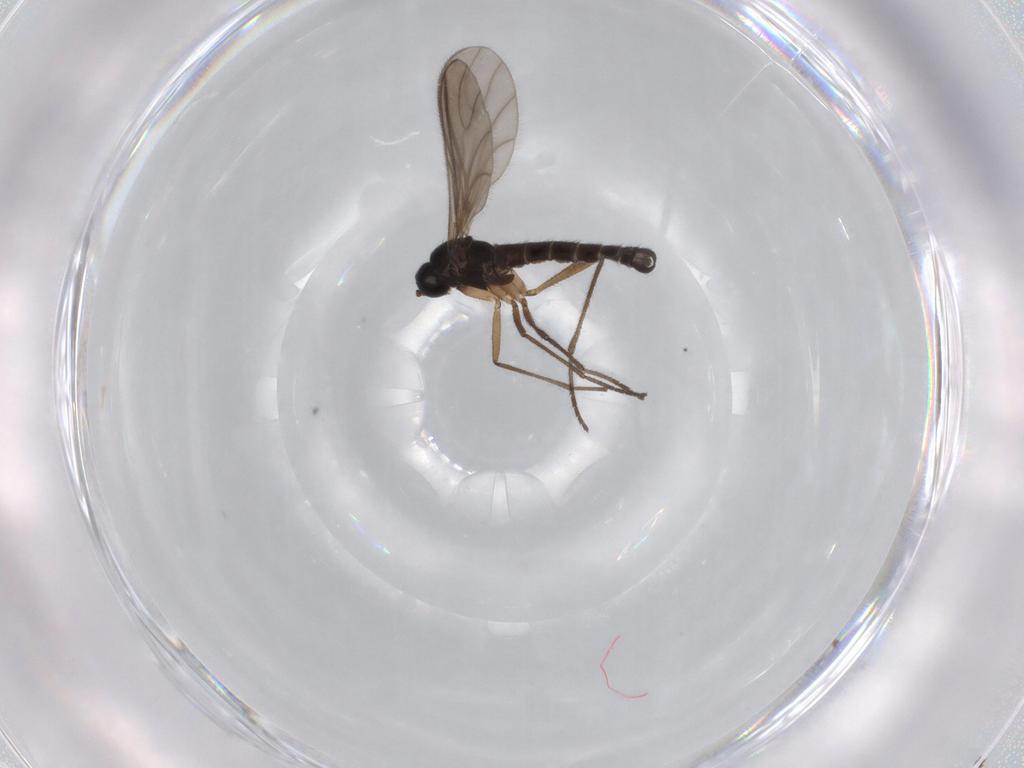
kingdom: Animalia
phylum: Arthropoda
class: Insecta
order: Diptera
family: Sciaridae
